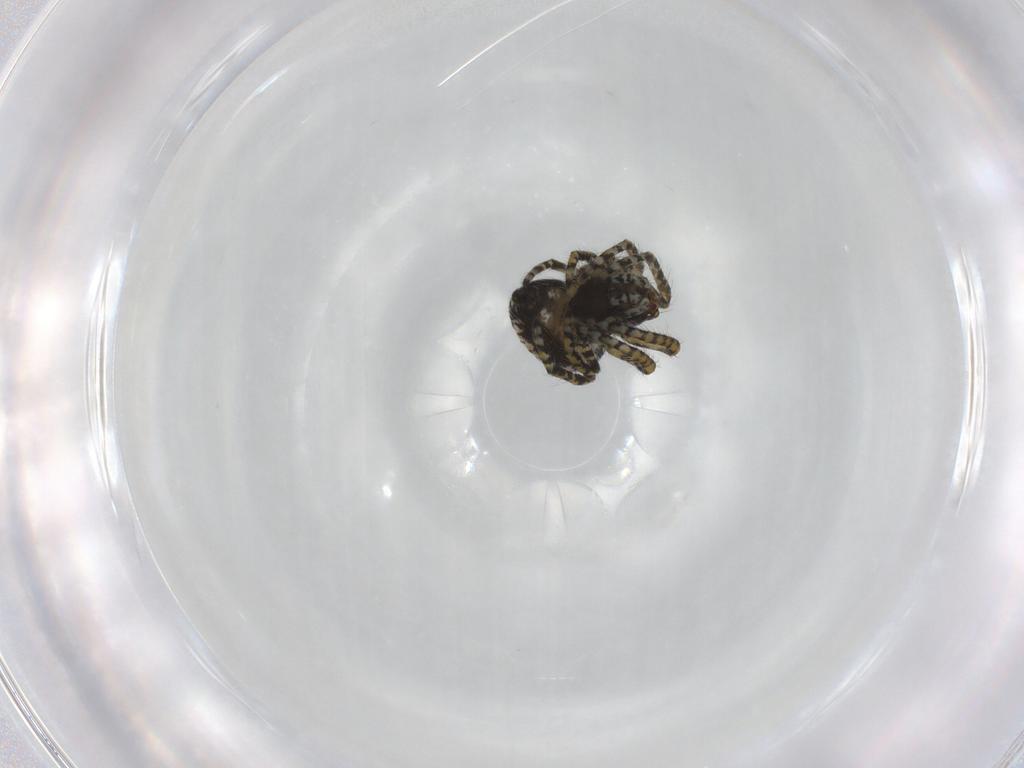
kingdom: Animalia
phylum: Arthropoda
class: Arachnida
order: Araneae
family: Araneidae
